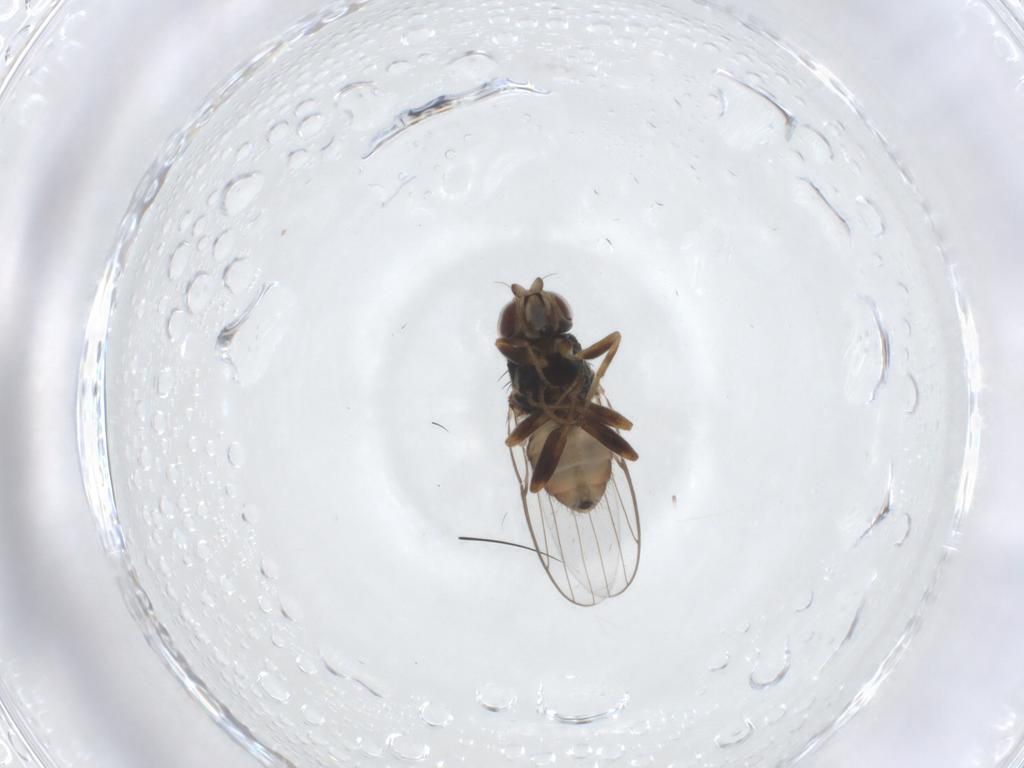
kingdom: Animalia
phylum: Arthropoda
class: Insecta
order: Diptera
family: Chloropidae
